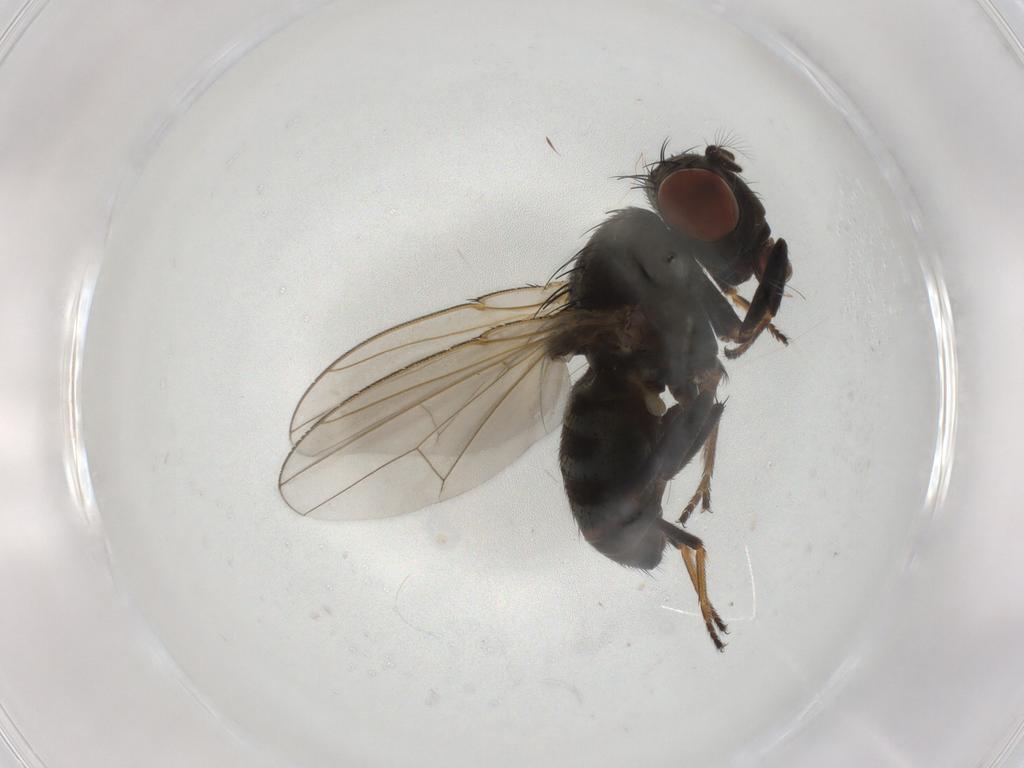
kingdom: Animalia
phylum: Arthropoda
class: Insecta
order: Diptera
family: Ephydridae
